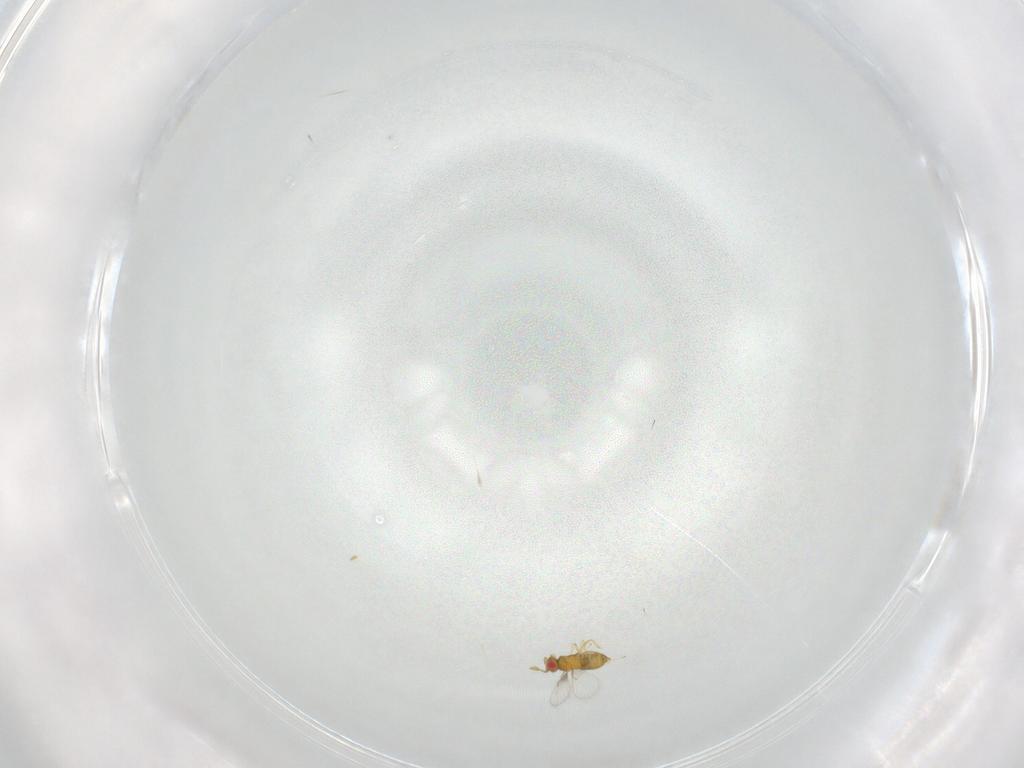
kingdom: Animalia
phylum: Arthropoda
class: Insecta
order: Hymenoptera
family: Trichogrammatidae
